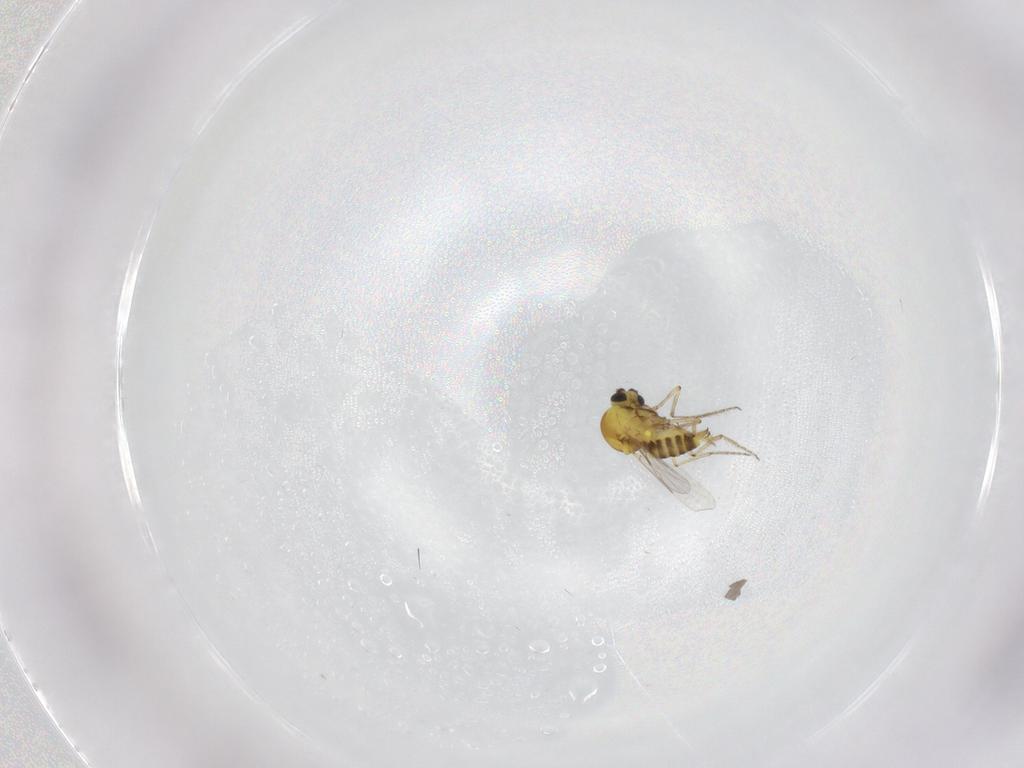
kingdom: Animalia
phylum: Arthropoda
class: Insecta
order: Diptera
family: Ceratopogonidae
